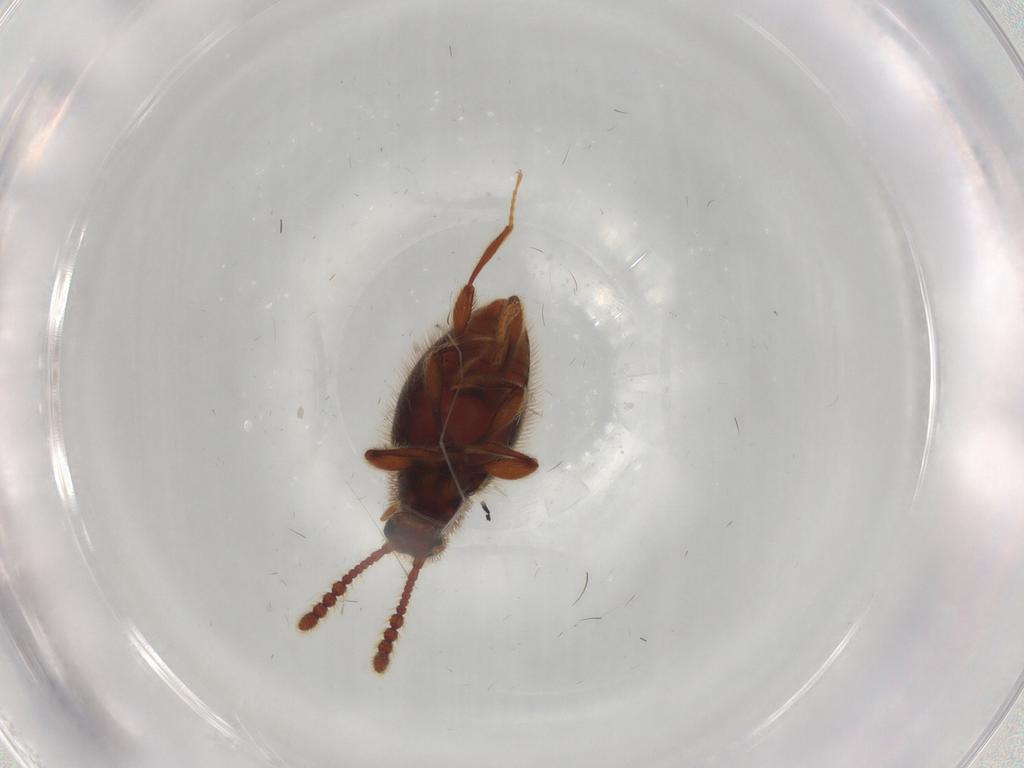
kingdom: Animalia
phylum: Arthropoda
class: Insecta
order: Coleoptera
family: Staphylinidae
